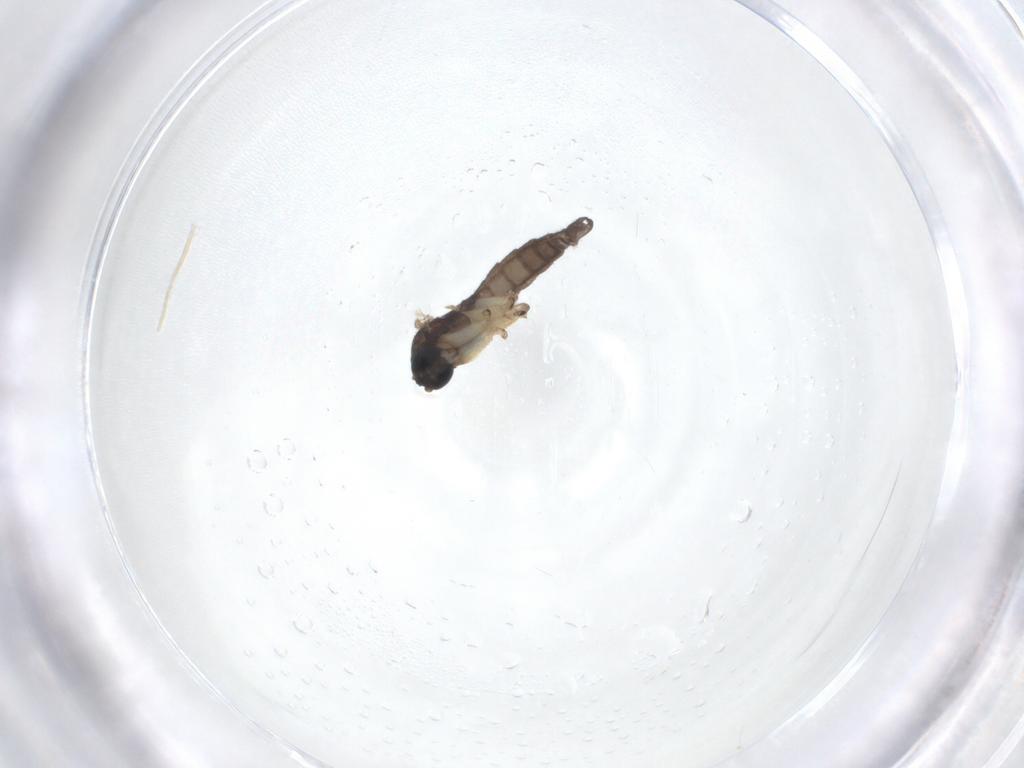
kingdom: Animalia
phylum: Arthropoda
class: Insecta
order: Diptera
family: Sciaridae
